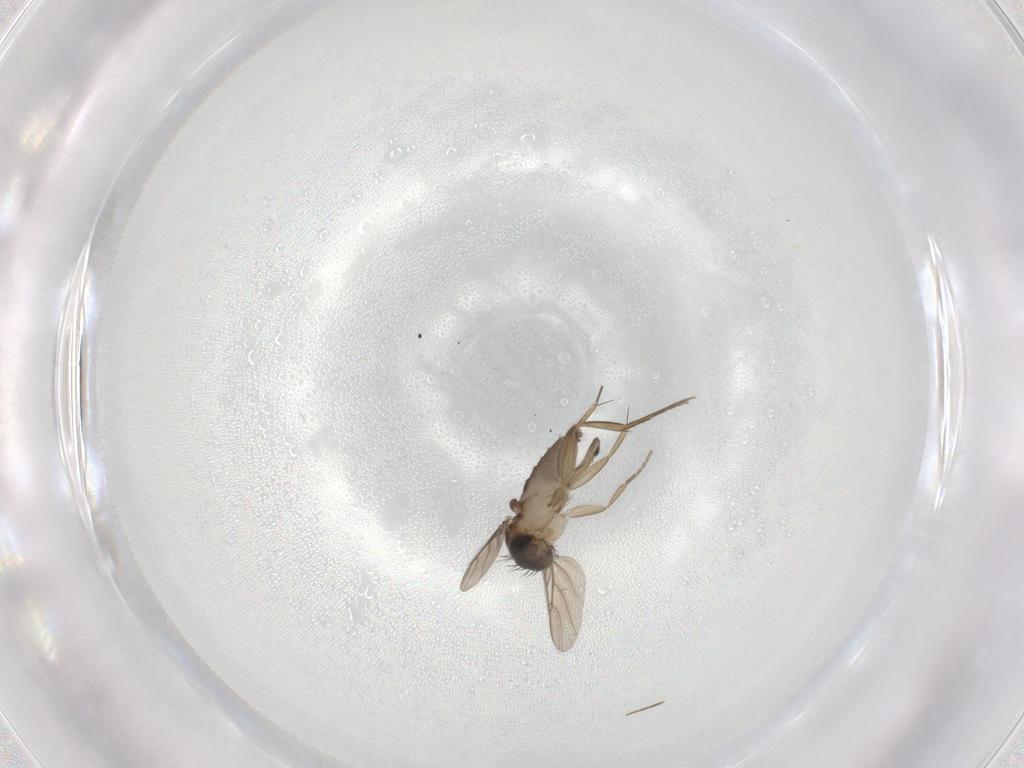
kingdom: Animalia
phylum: Arthropoda
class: Insecta
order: Diptera
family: Phoridae
